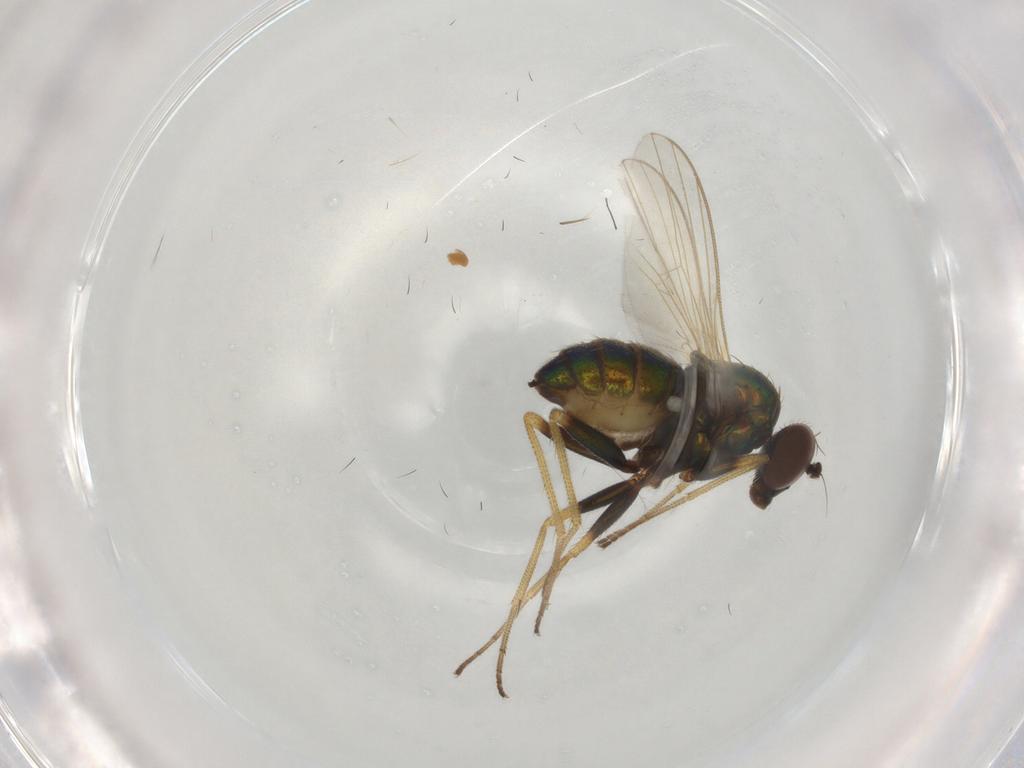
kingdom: Animalia
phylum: Arthropoda
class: Insecta
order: Diptera
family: Dolichopodidae
